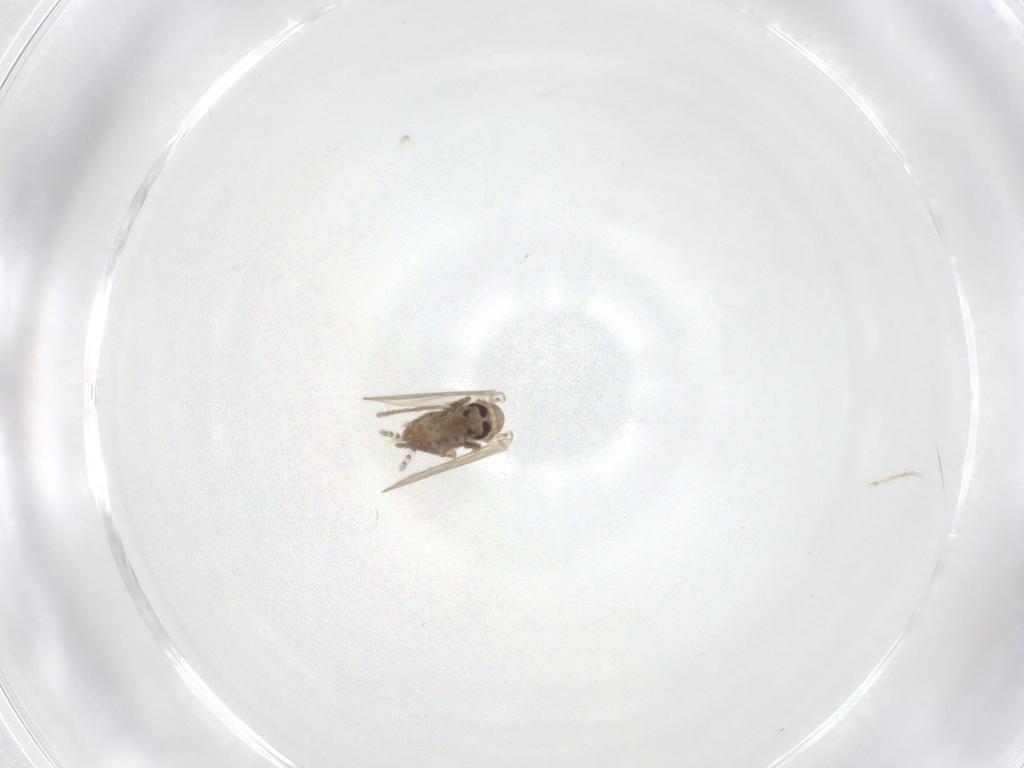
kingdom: Animalia
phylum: Arthropoda
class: Insecta
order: Diptera
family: Psychodidae
